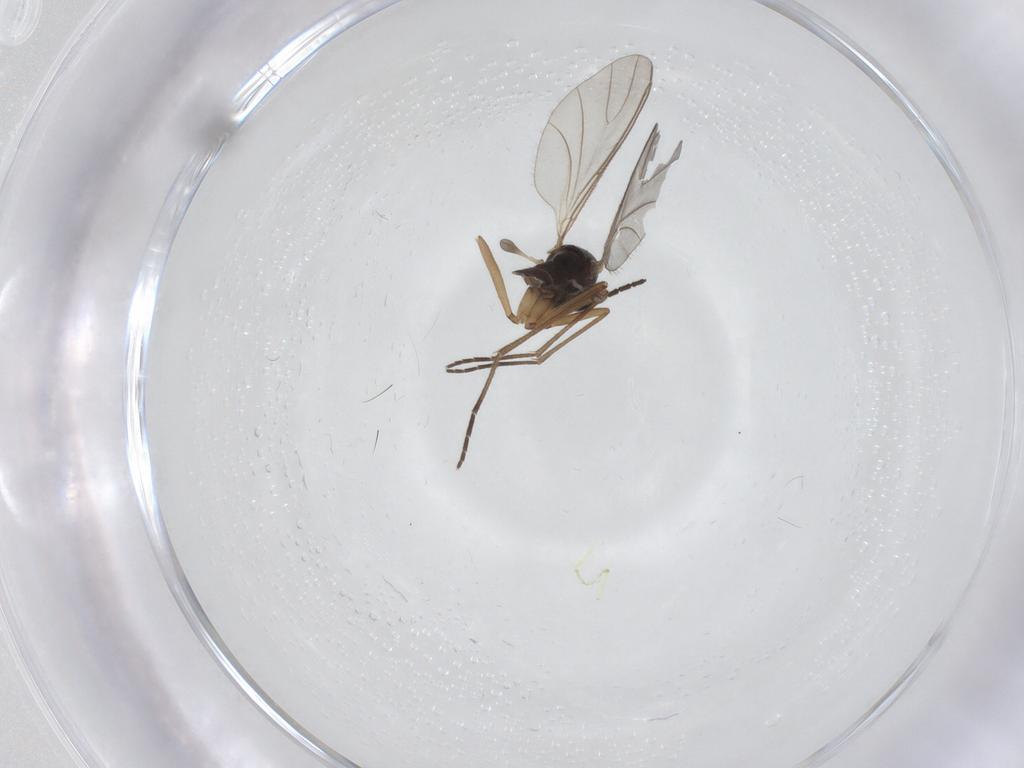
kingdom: Animalia
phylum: Arthropoda
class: Insecta
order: Diptera
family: Sciaridae
